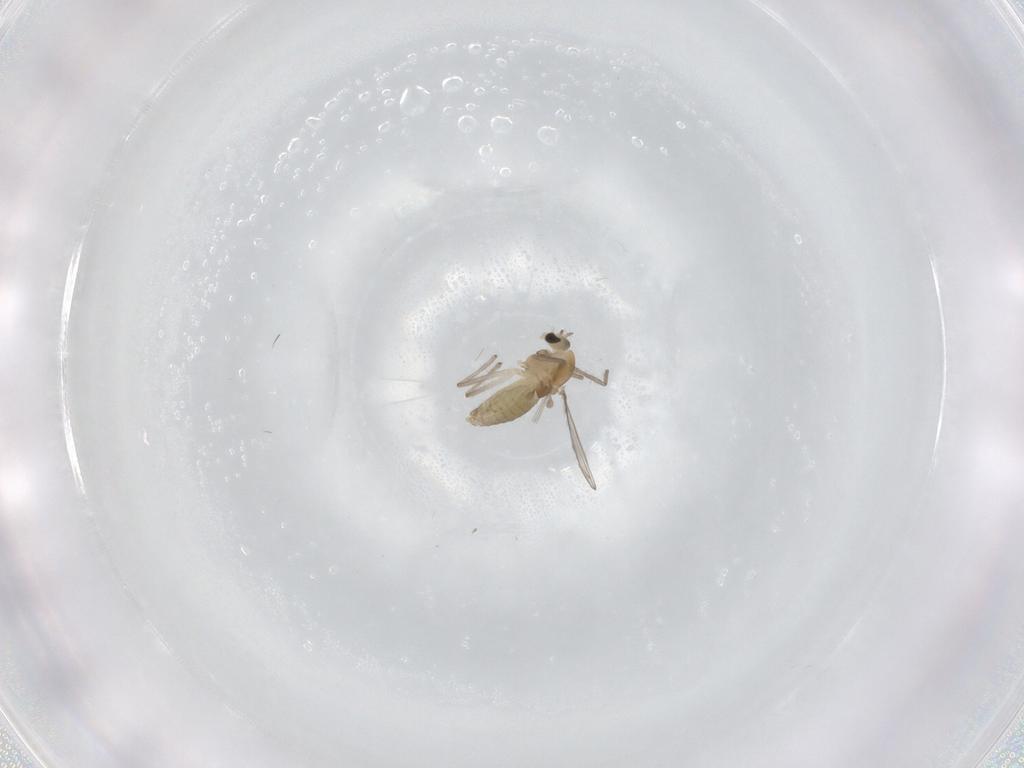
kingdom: Animalia
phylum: Arthropoda
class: Insecta
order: Diptera
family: Chironomidae
